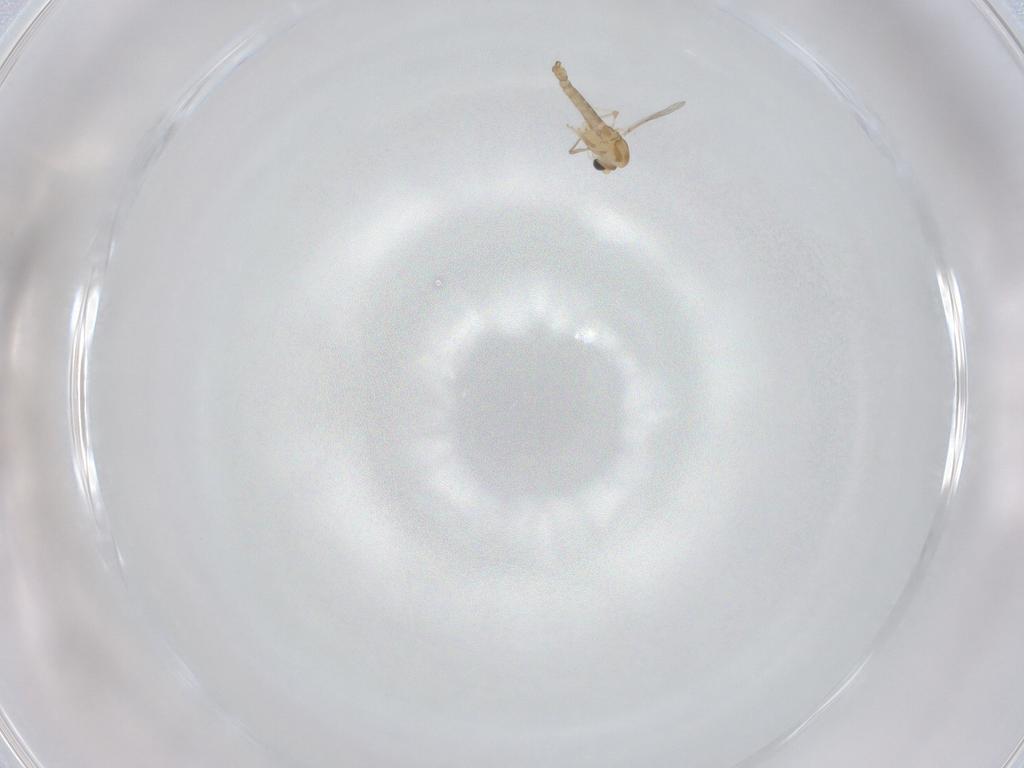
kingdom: Animalia
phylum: Arthropoda
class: Insecta
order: Diptera
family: Chironomidae
